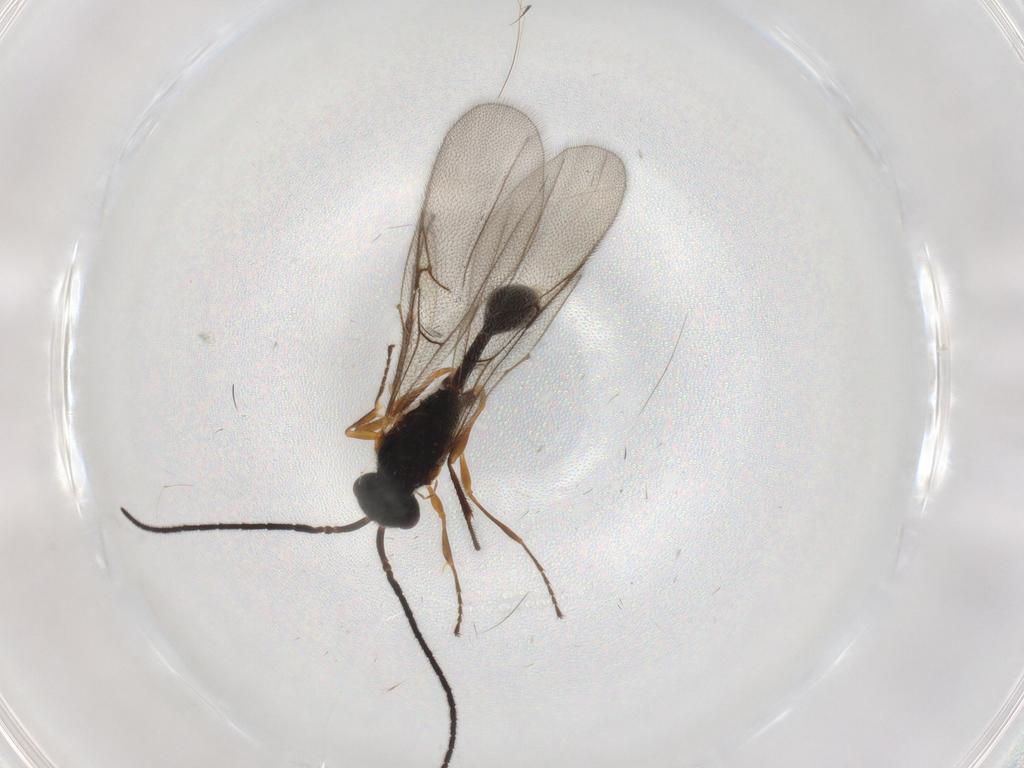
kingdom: Animalia
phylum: Arthropoda
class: Insecta
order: Hymenoptera
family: Diapriidae
